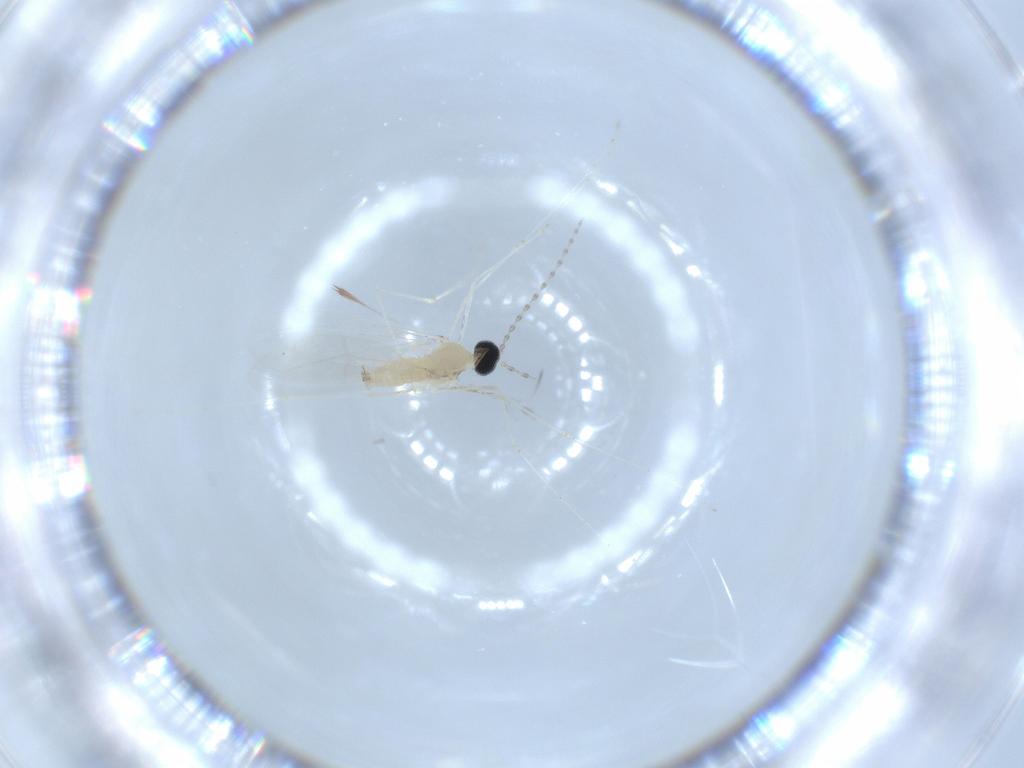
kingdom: Animalia
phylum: Arthropoda
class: Insecta
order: Diptera
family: Cecidomyiidae
